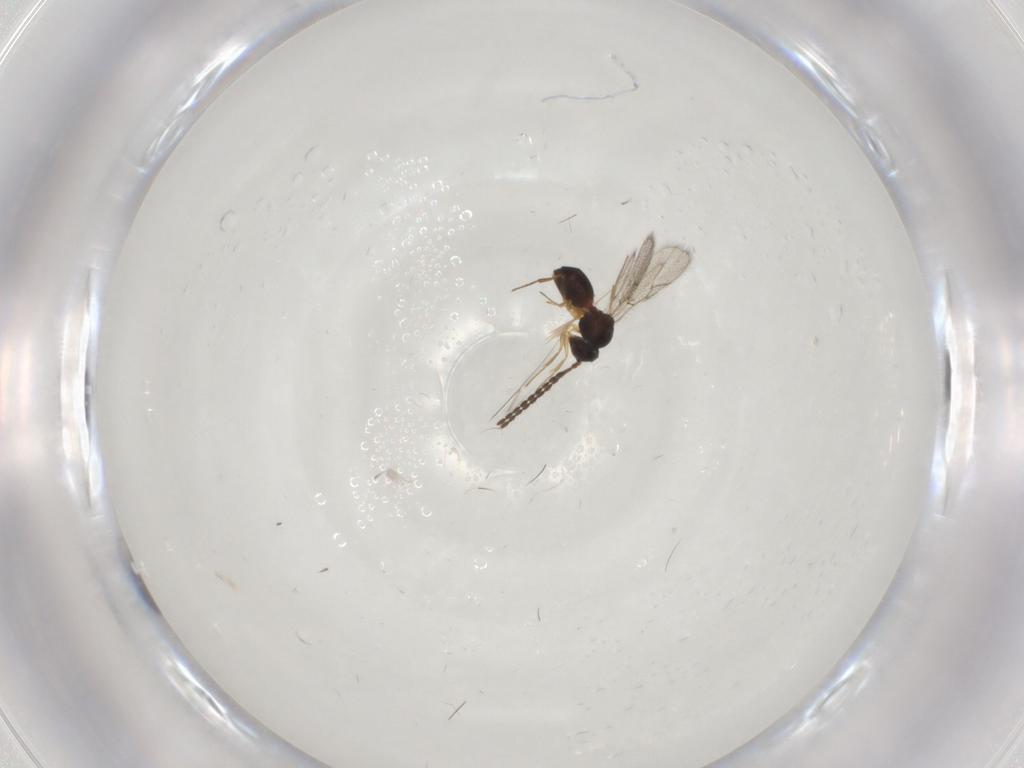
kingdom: Animalia
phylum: Arthropoda
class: Insecta
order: Hymenoptera
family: Figitidae
